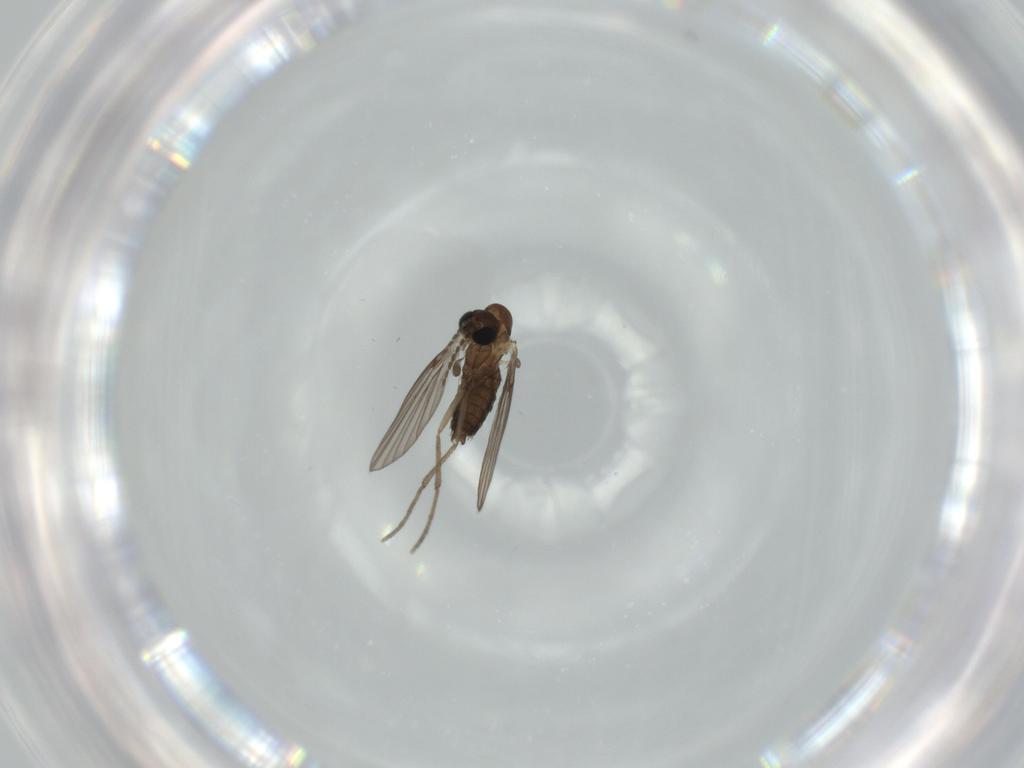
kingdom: Animalia
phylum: Arthropoda
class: Insecta
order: Diptera
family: Psychodidae
